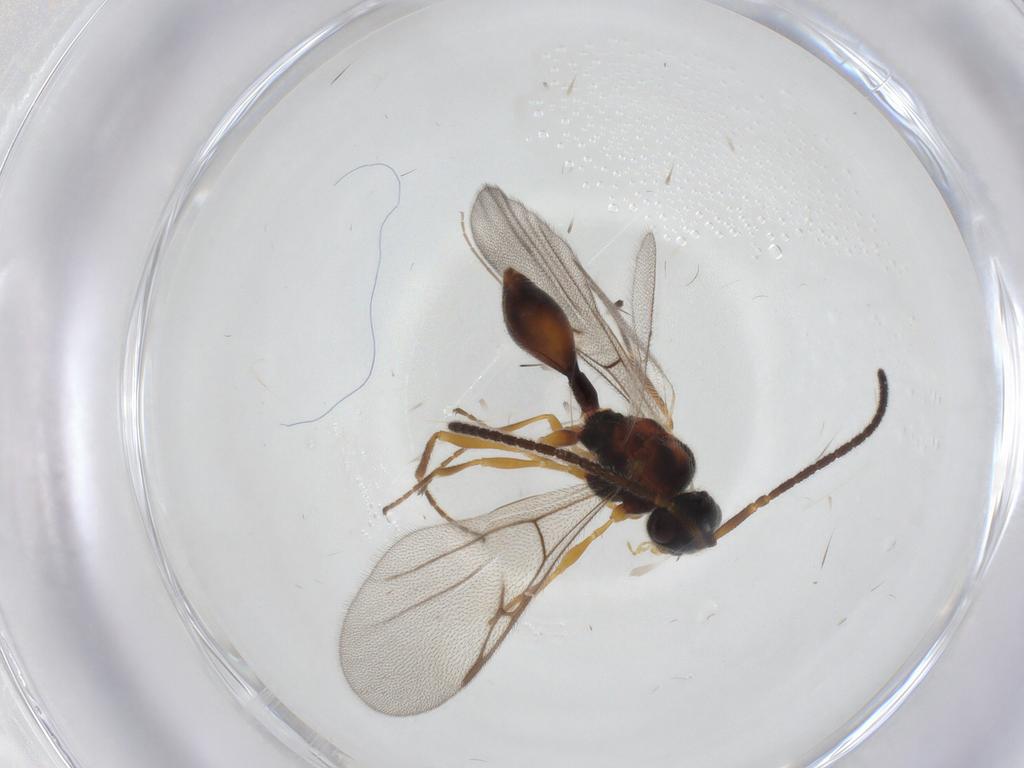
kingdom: Animalia
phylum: Arthropoda
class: Insecta
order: Hymenoptera
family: Diapriidae
